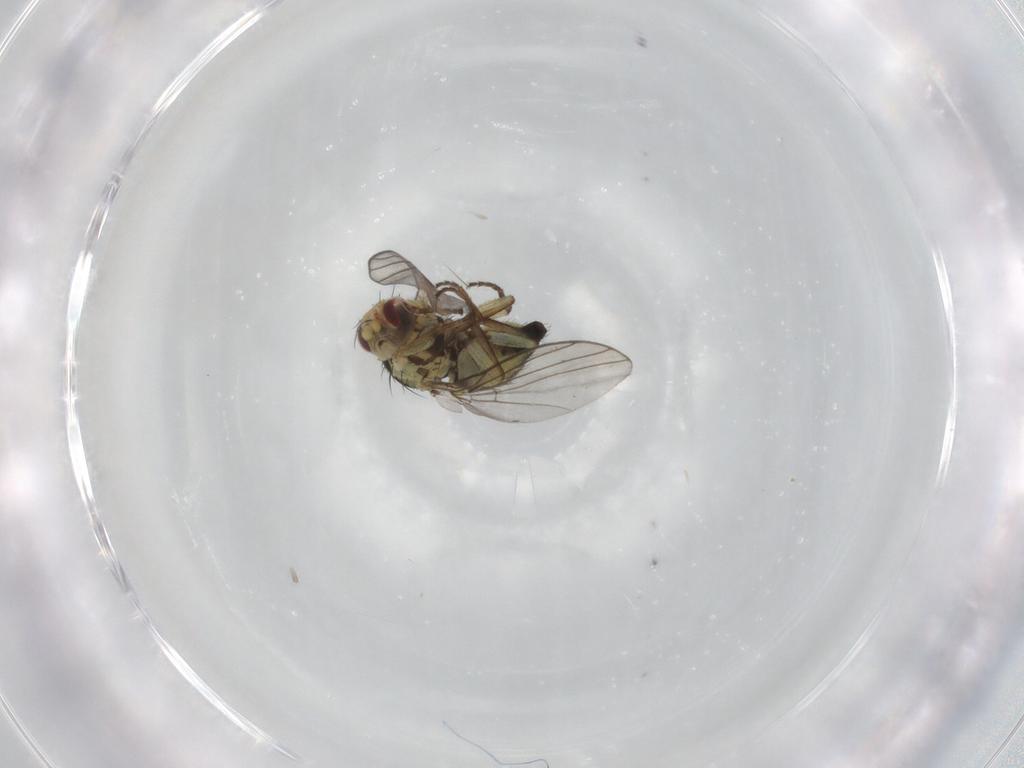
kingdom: Animalia
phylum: Arthropoda
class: Insecta
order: Diptera
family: Agromyzidae
